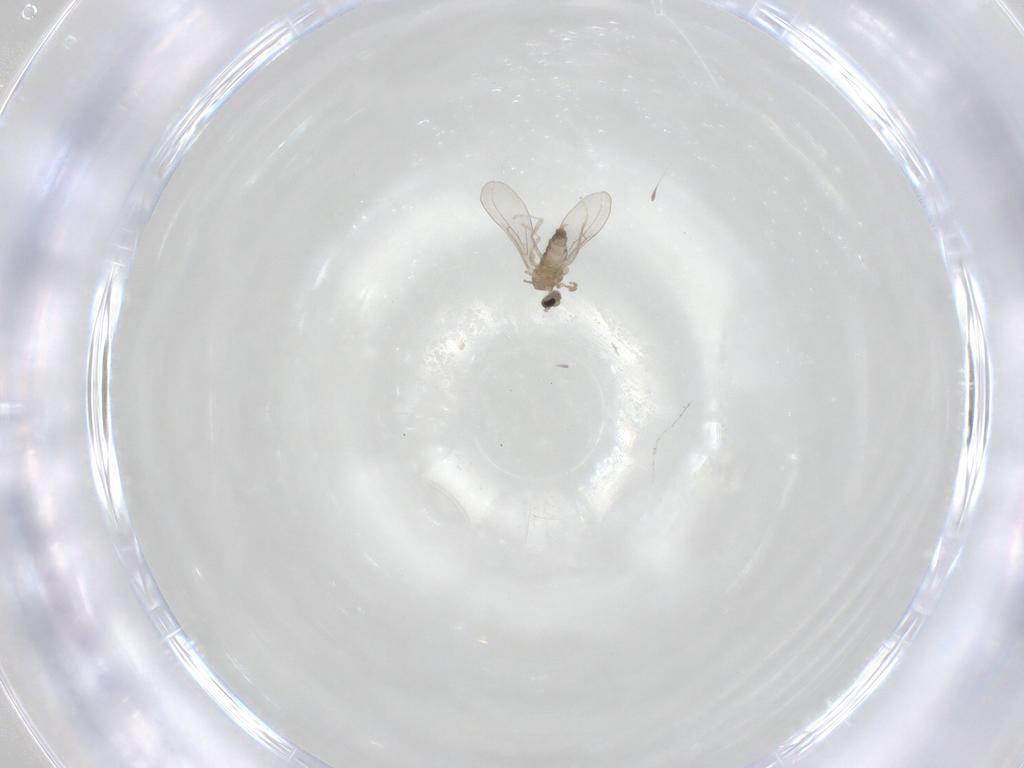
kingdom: Animalia
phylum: Arthropoda
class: Insecta
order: Diptera
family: Cecidomyiidae
